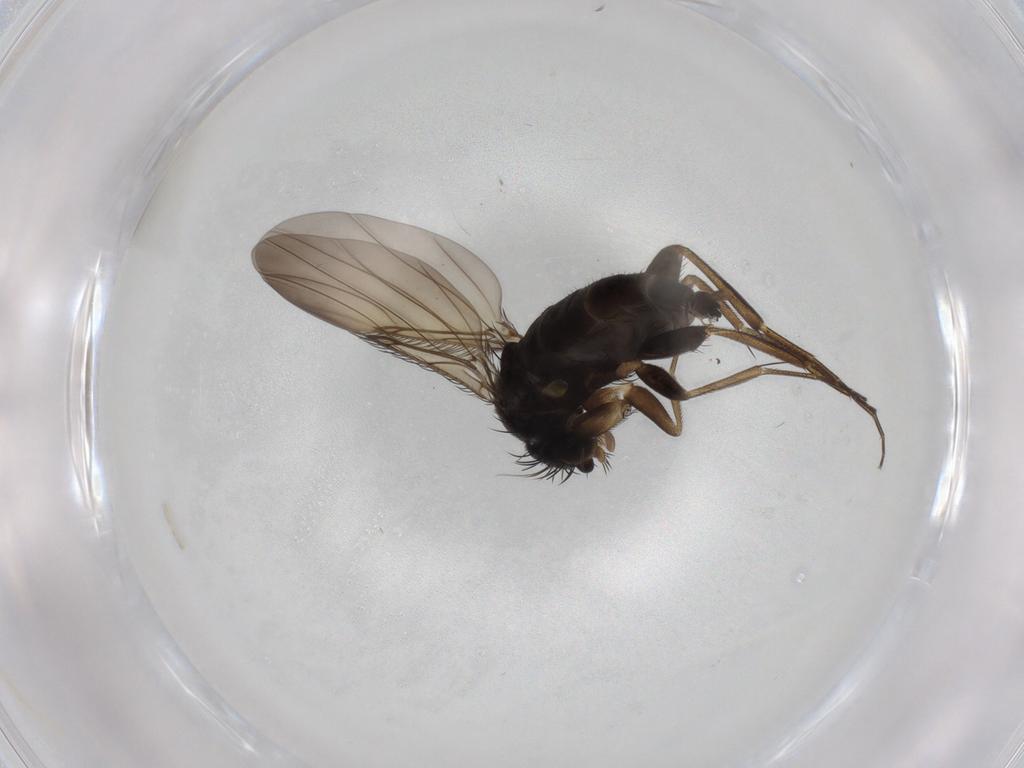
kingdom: Animalia
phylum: Arthropoda
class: Insecta
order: Diptera
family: Phoridae
